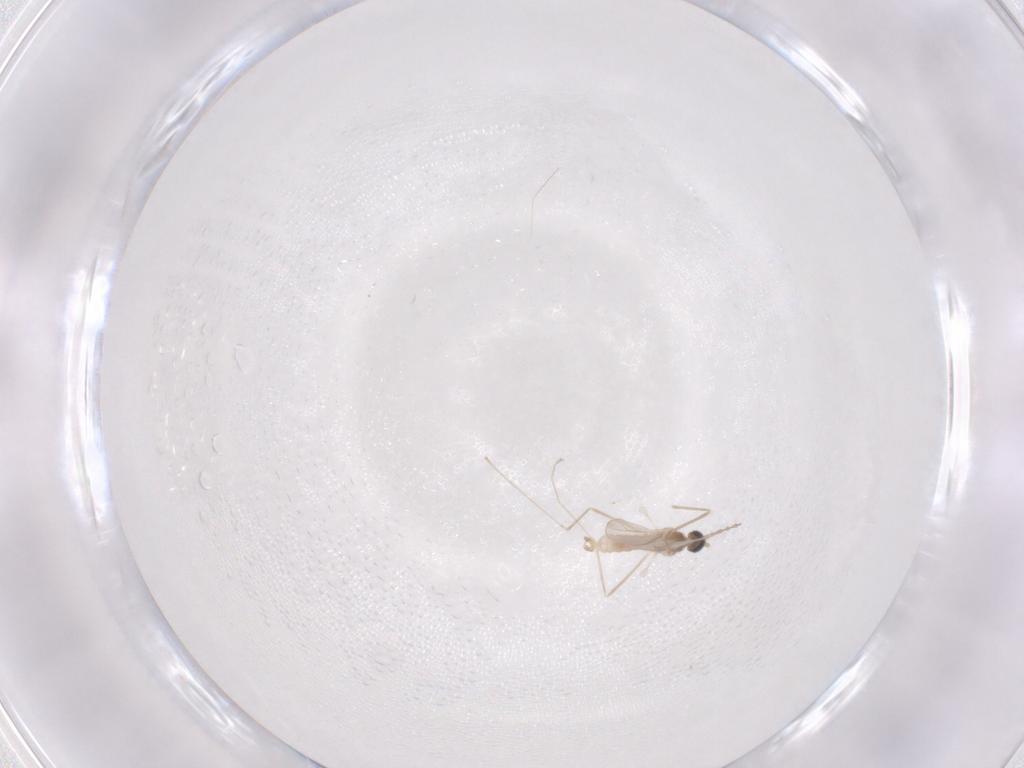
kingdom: Animalia
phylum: Arthropoda
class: Insecta
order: Diptera
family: Cecidomyiidae
